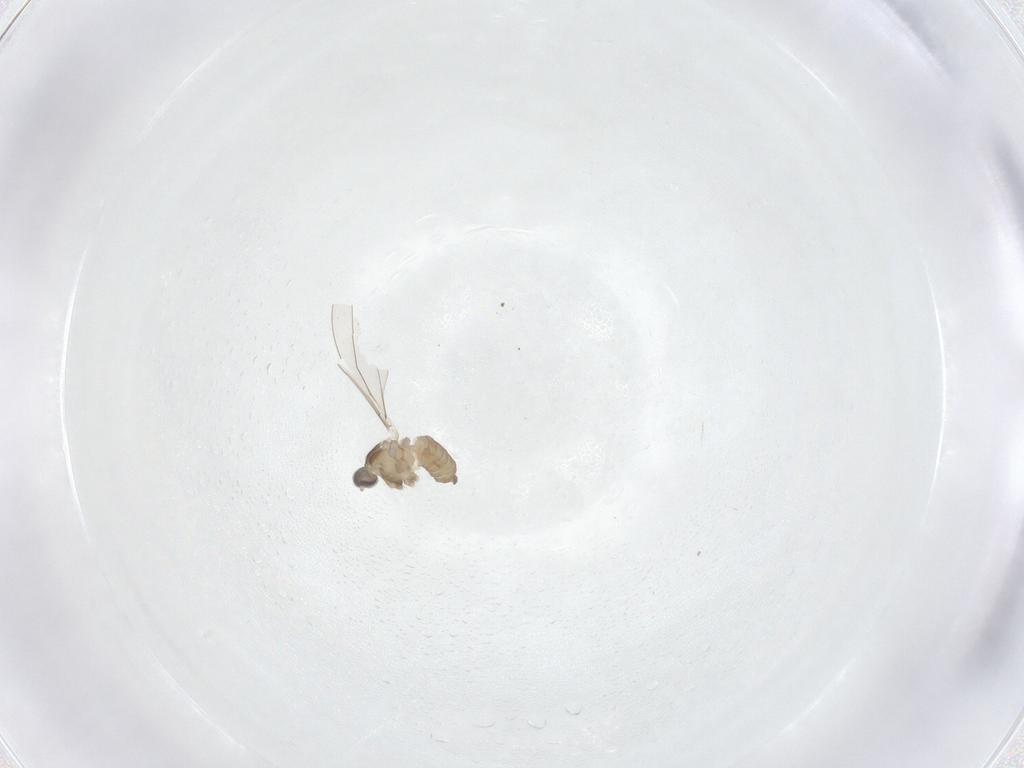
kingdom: Animalia
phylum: Arthropoda
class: Insecta
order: Diptera
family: Cecidomyiidae
